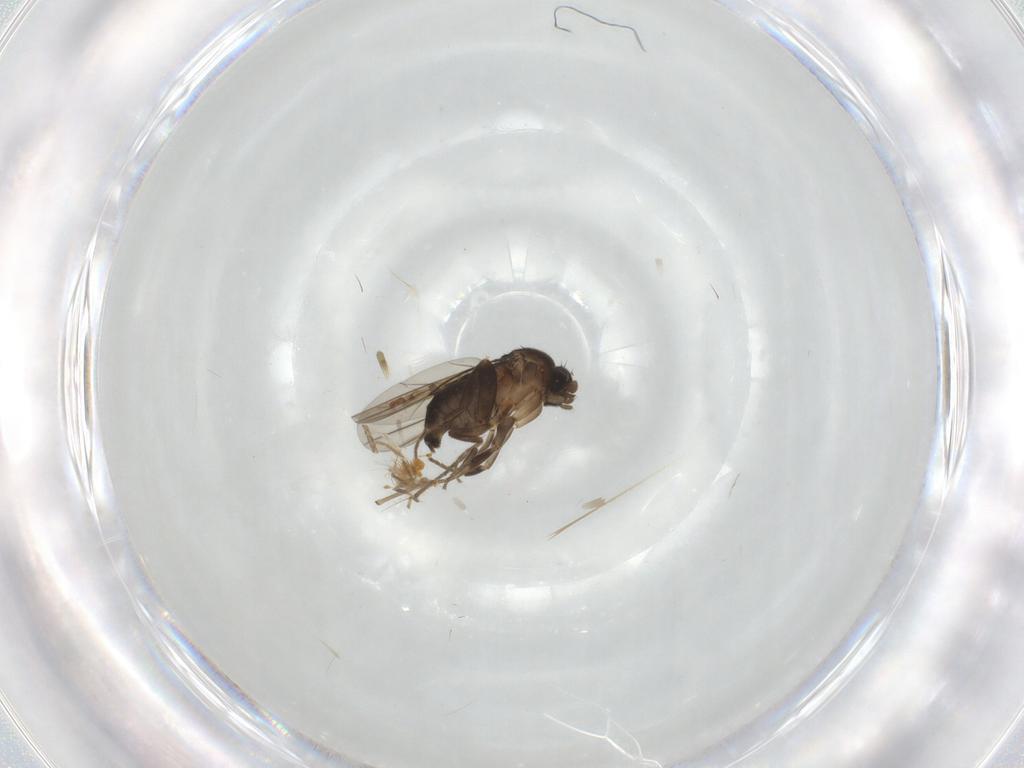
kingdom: Animalia
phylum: Arthropoda
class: Insecta
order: Diptera
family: Phoridae
